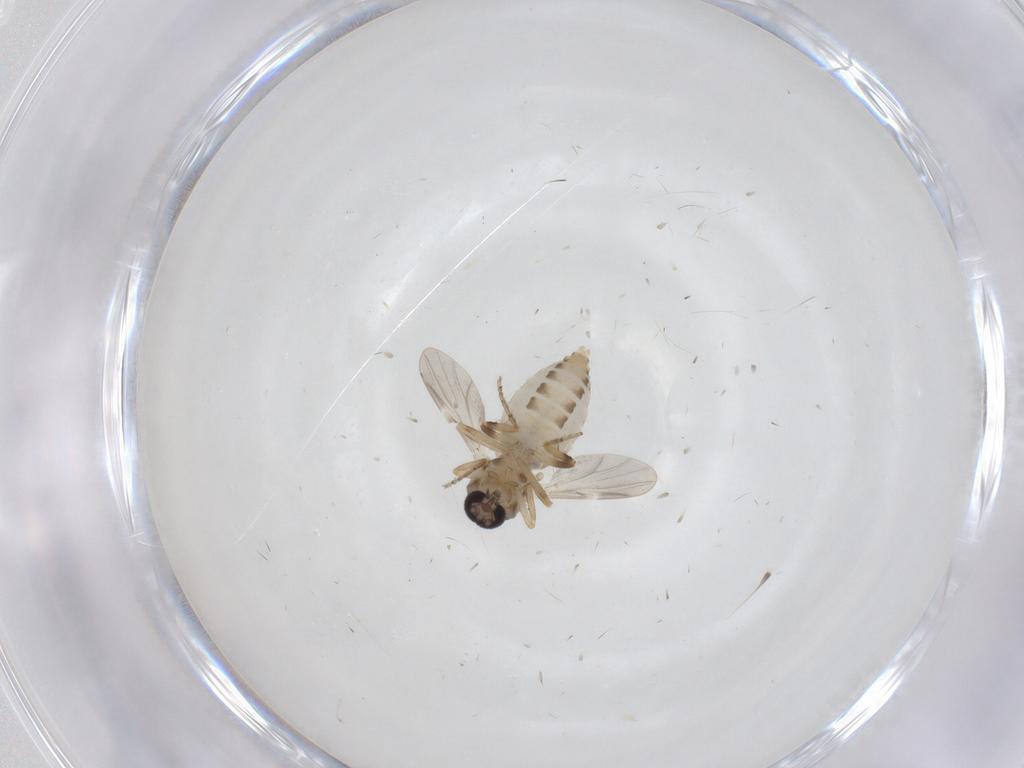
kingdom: Animalia
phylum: Arthropoda
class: Insecta
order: Diptera
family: Ceratopogonidae
